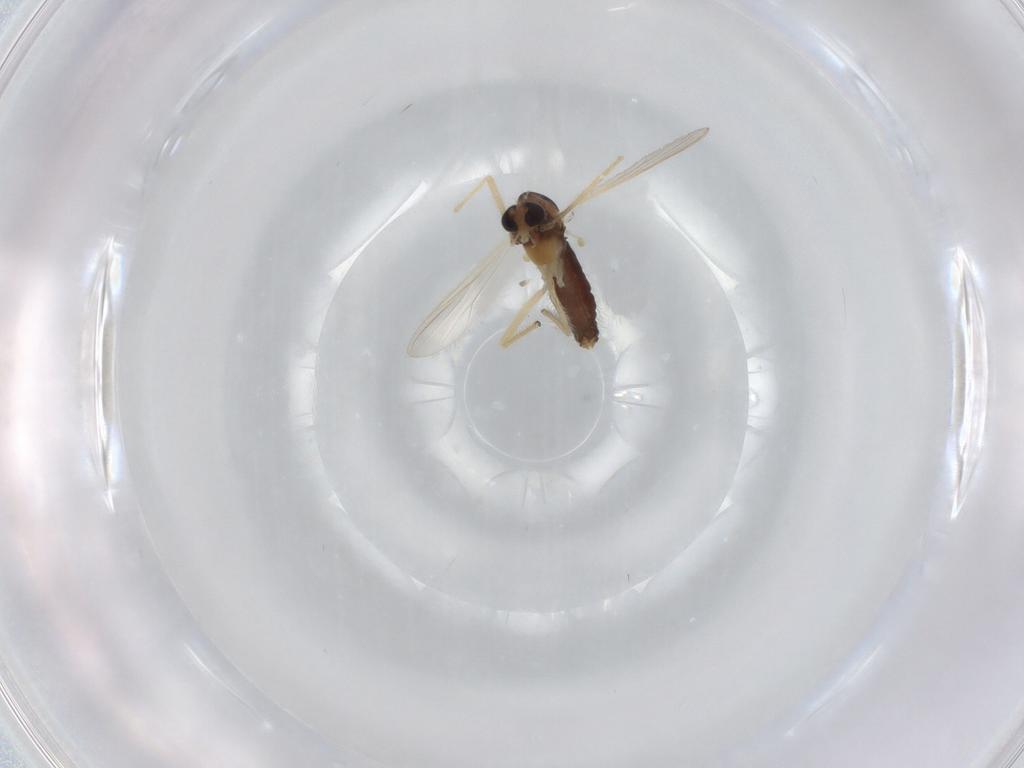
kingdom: Animalia
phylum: Arthropoda
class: Insecta
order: Diptera
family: Chironomidae
